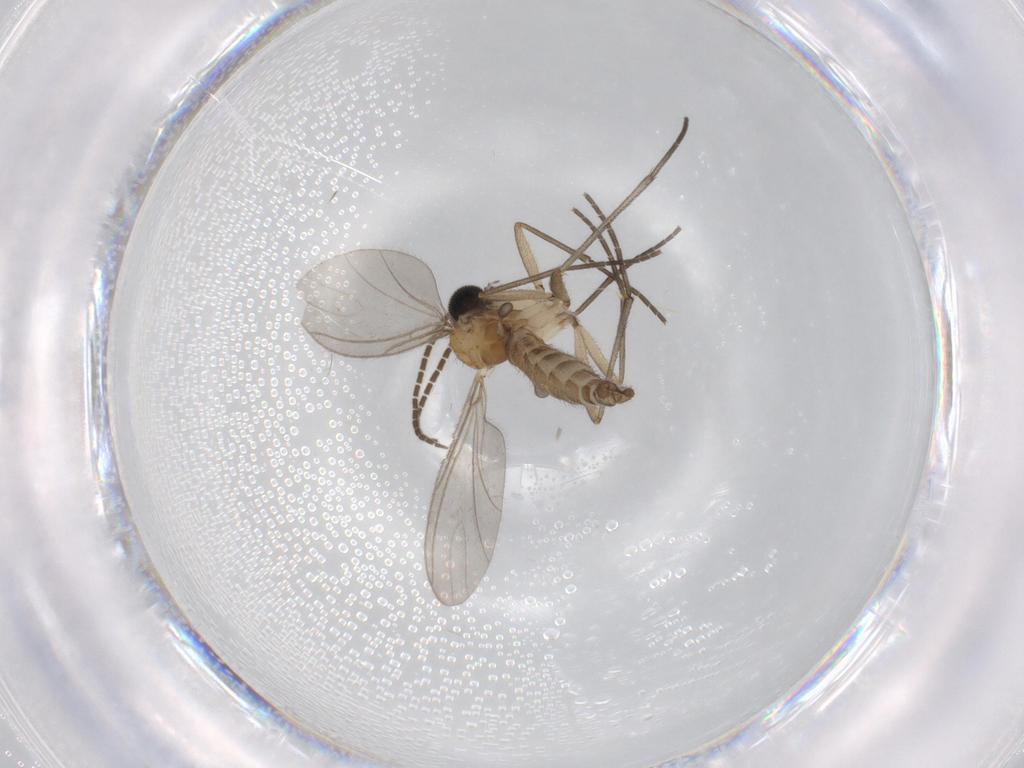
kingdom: Animalia
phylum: Arthropoda
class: Insecta
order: Diptera
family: Sciaridae
